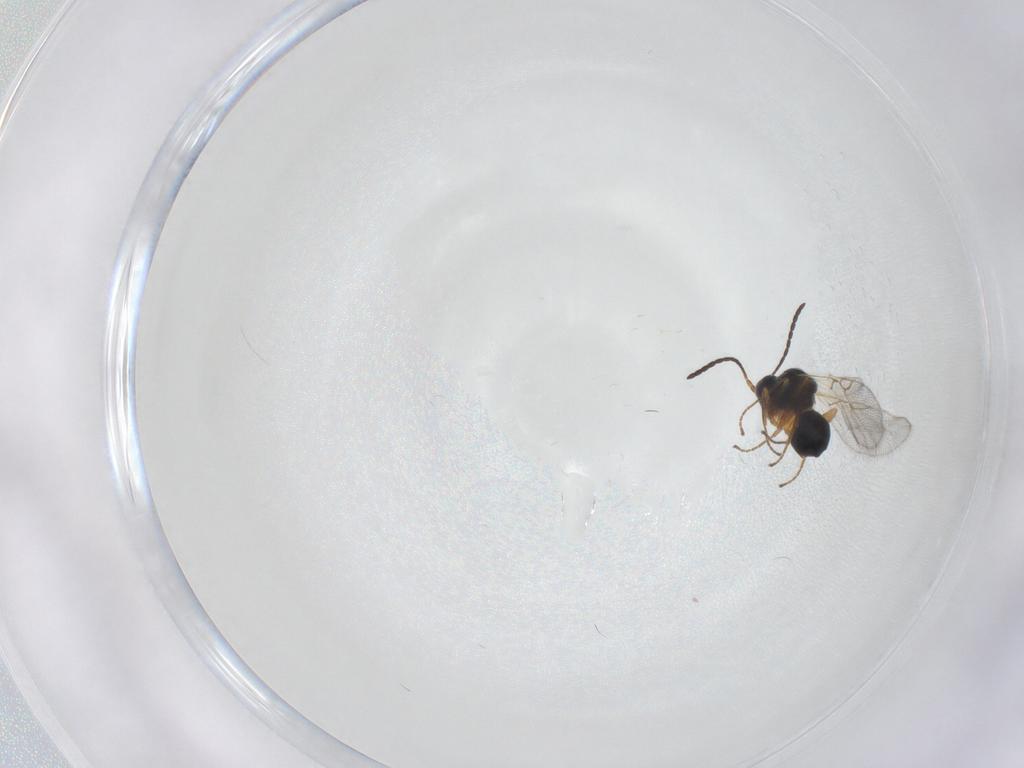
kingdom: Animalia
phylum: Arthropoda
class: Insecta
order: Hymenoptera
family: Figitidae
